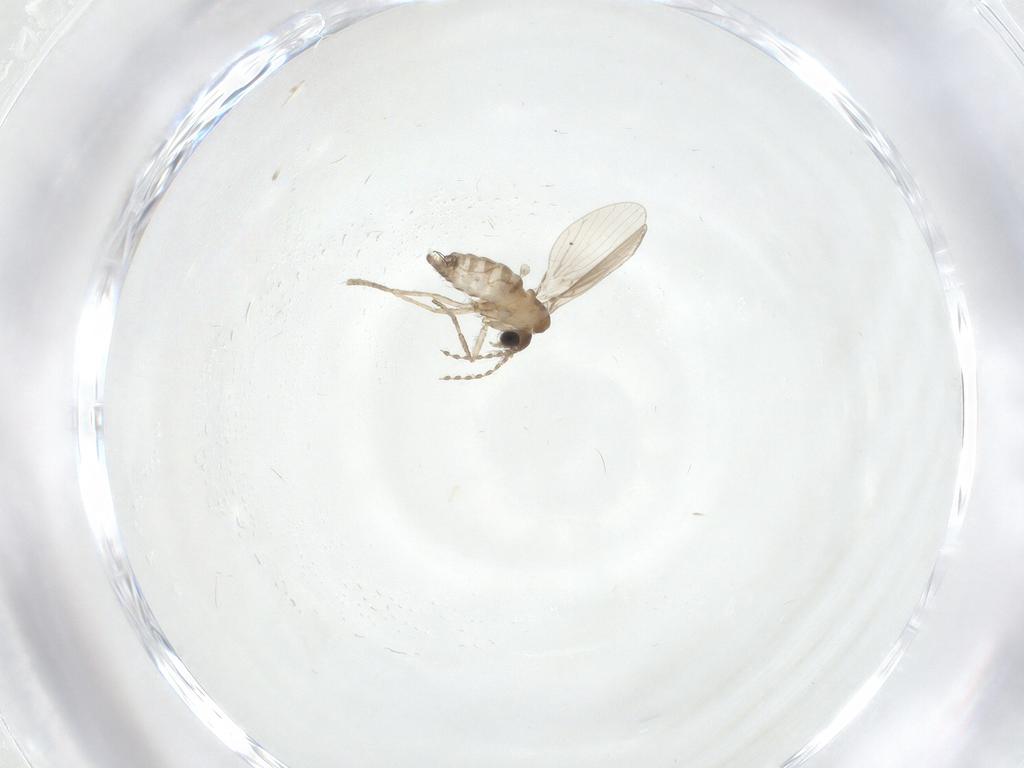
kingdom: Animalia
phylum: Arthropoda
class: Insecta
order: Diptera
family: Psychodidae
